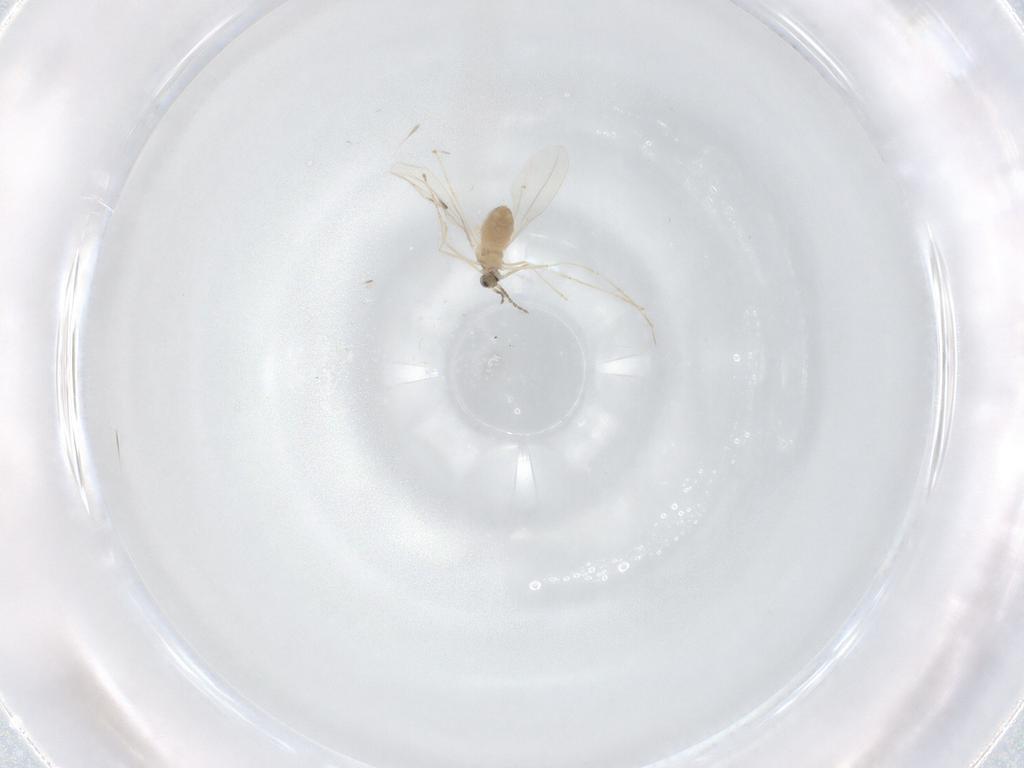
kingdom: Animalia
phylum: Arthropoda
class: Insecta
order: Diptera
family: Cecidomyiidae
